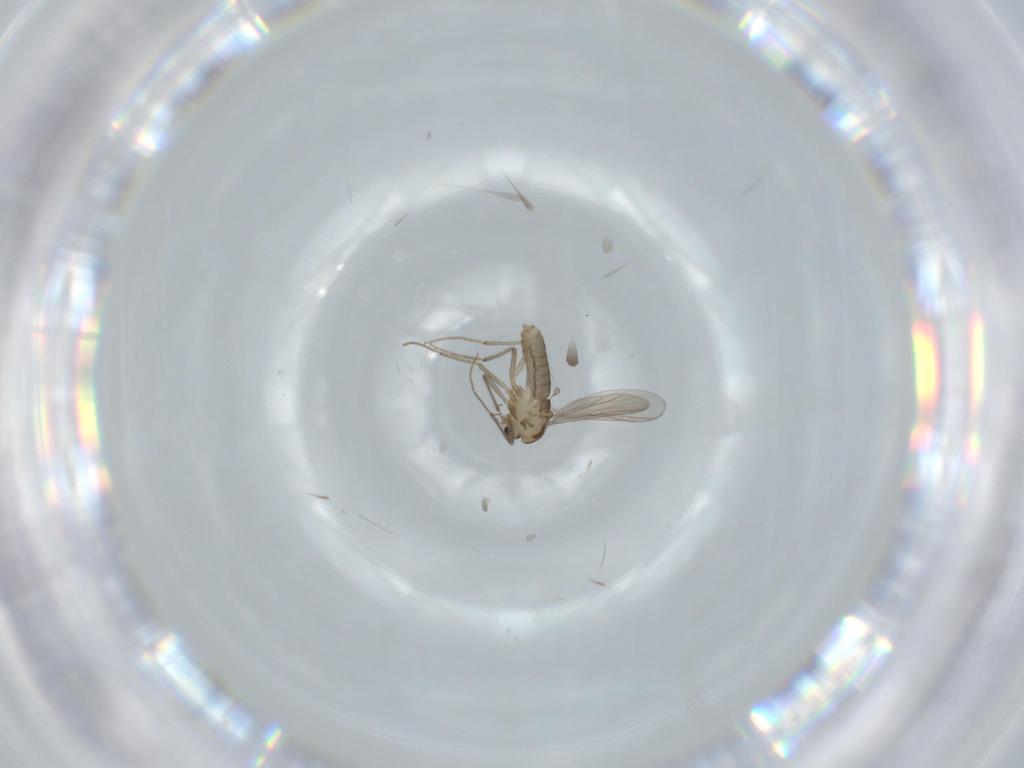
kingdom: Animalia
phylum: Arthropoda
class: Insecta
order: Diptera
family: Chironomidae
